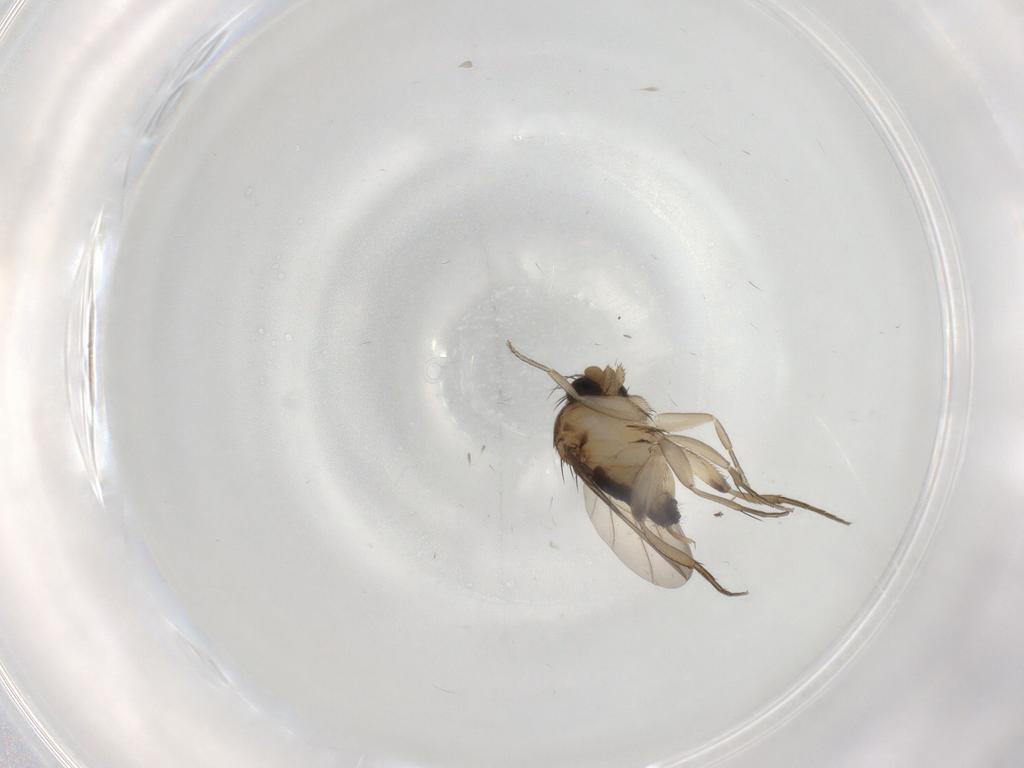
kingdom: Animalia
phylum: Arthropoda
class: Insecta
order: Diptera
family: Phoridae
